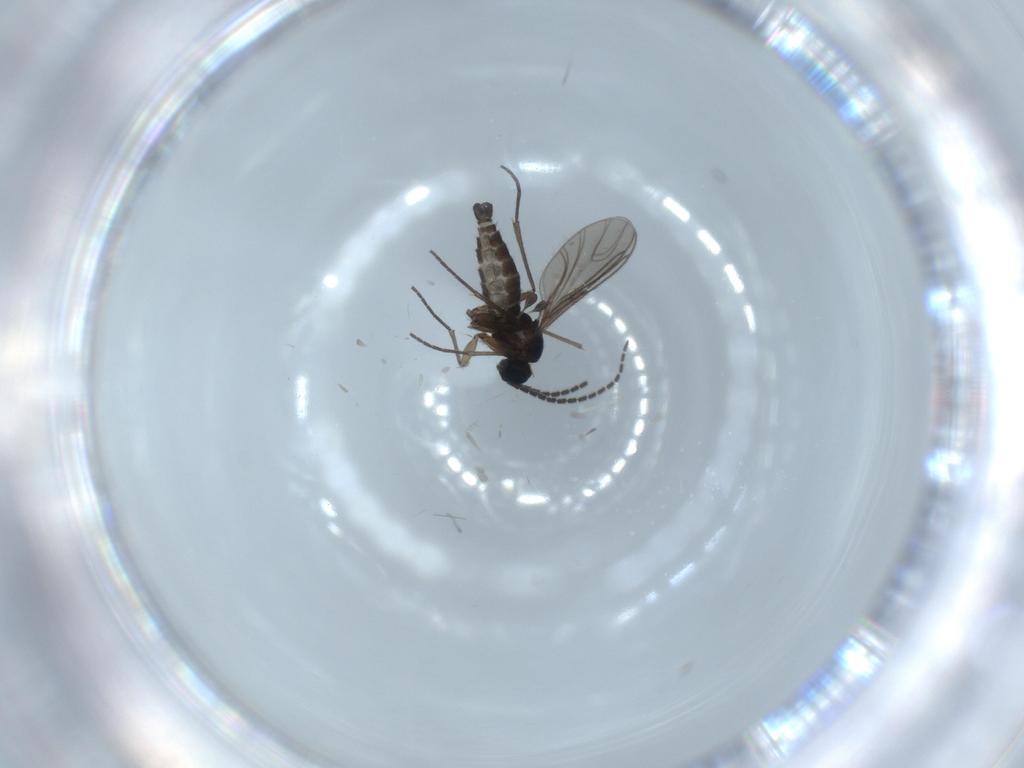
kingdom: Animalia
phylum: Arthropoda
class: Insecta
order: Diptera
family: Sciaridae
